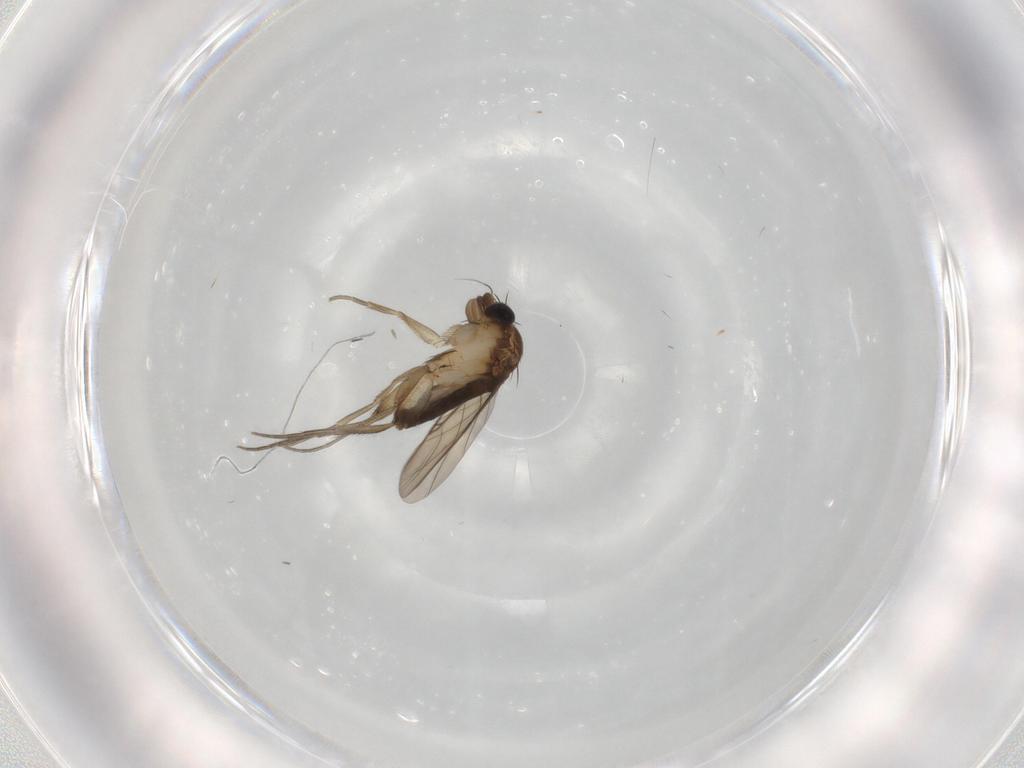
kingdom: Animalia
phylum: Arthropoda
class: Insecta
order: Diptera
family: Phoridae
